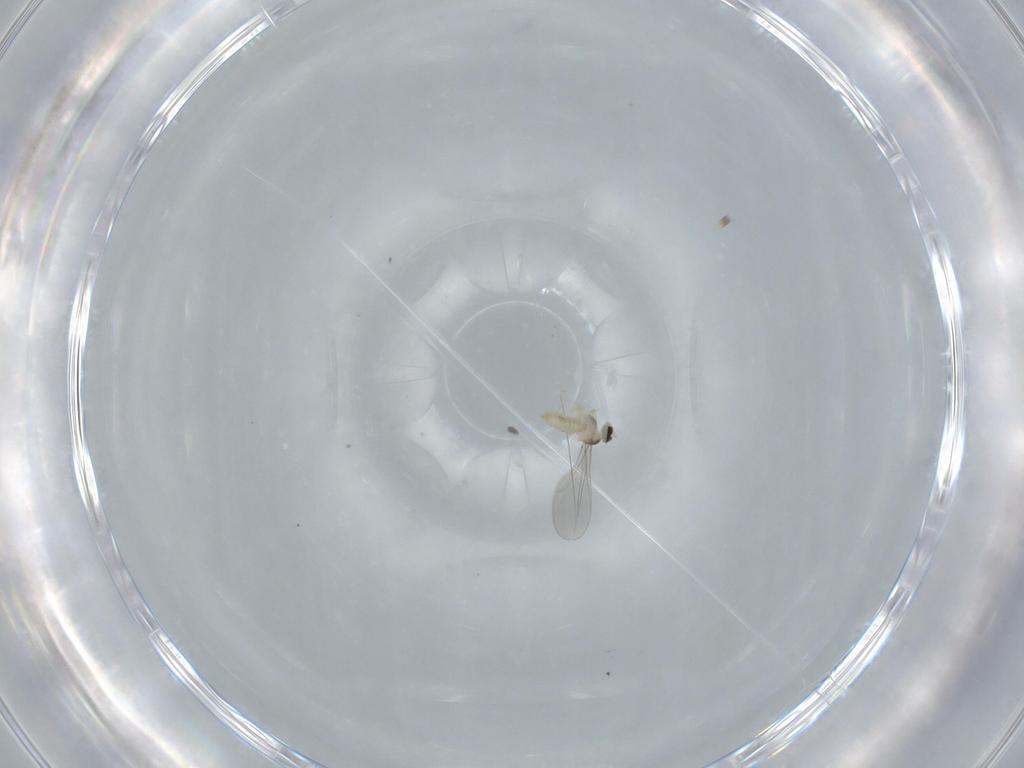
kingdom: Animalia
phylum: Arthropoda
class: Insecta
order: Diptera
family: Cecidomyiidae
